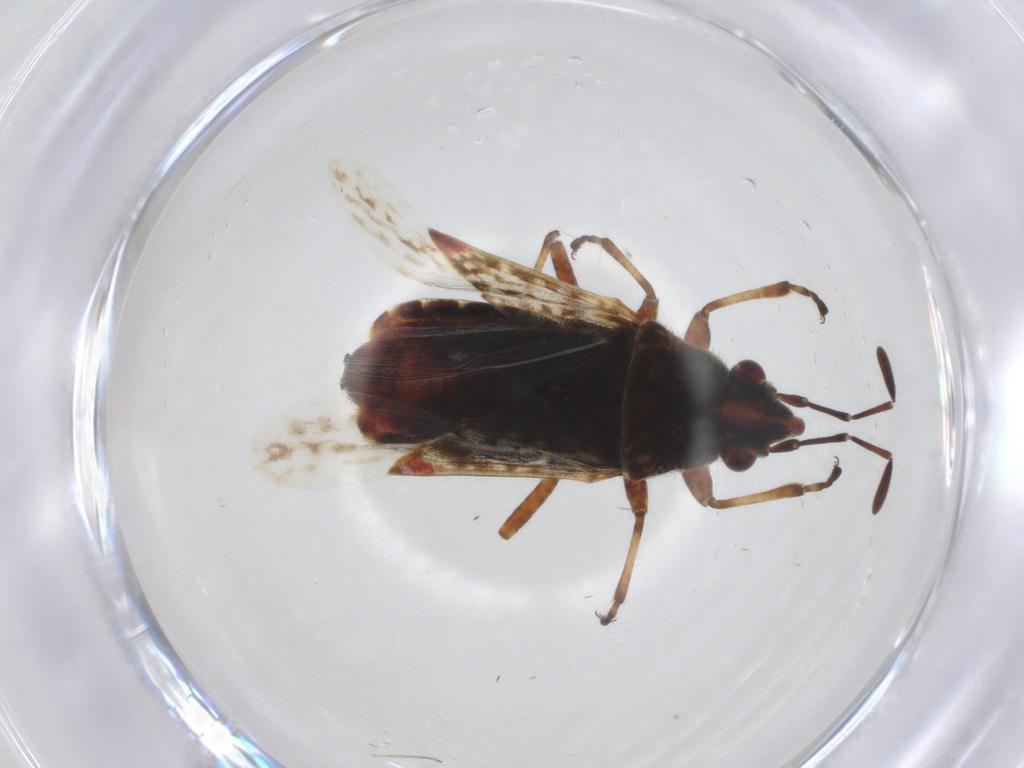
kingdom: Animalia
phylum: Arthropoda
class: Insecta
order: Hemiptera
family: Lygaeidae
